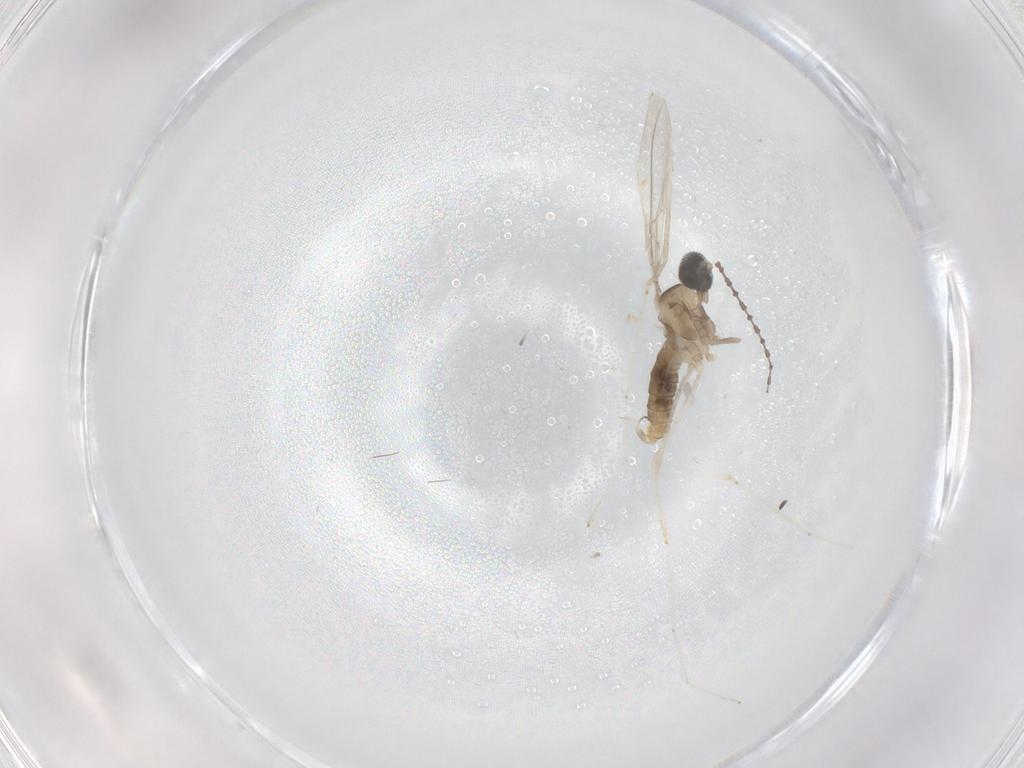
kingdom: Animalia
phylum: Arthropoda
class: Insecta
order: Diptera
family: Cecidomyiidae
